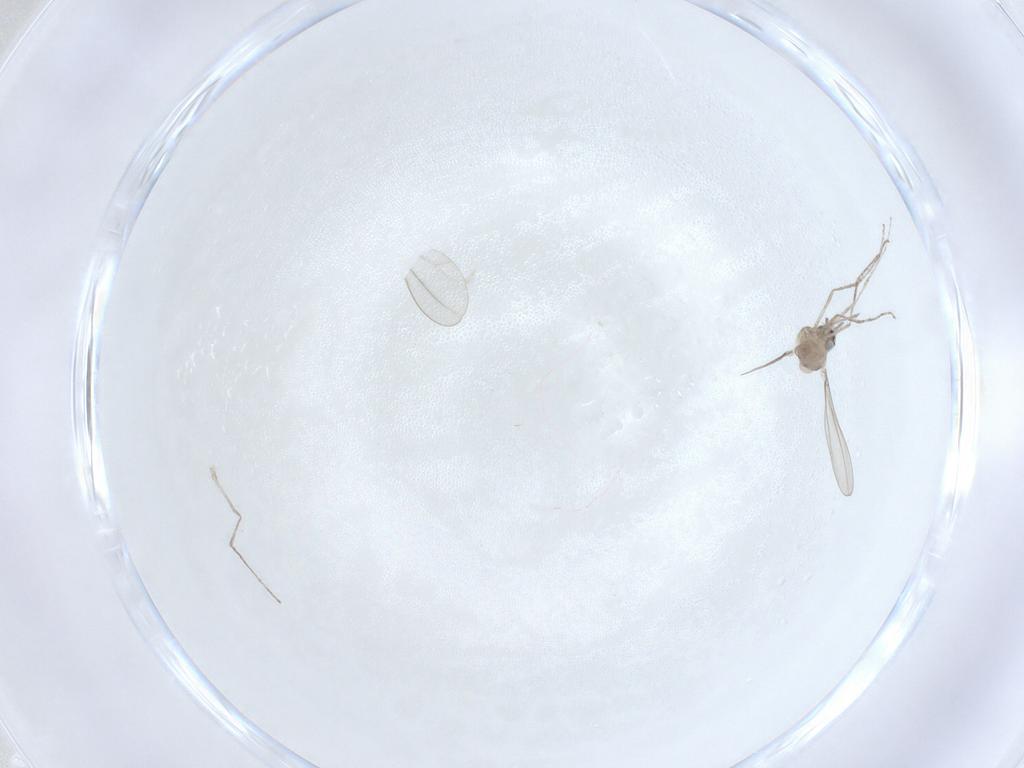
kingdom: Animalia
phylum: Arthropoda
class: Insecta
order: Diptera
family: Cecidomyiidae
